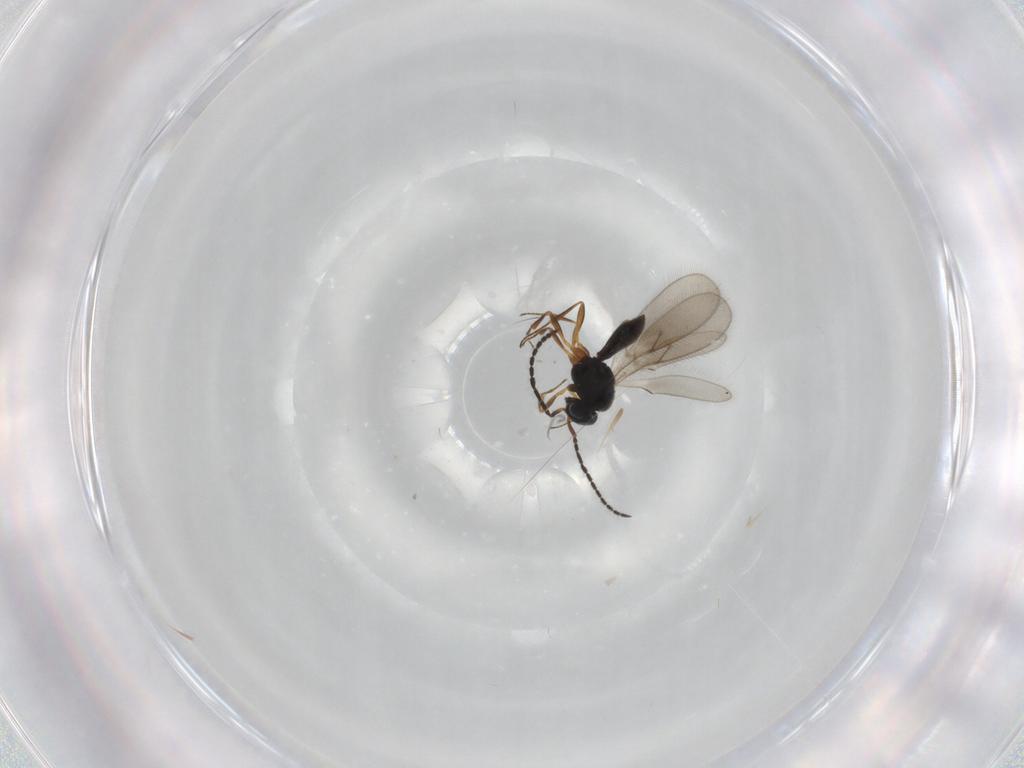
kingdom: Animalia
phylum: Arthropoda
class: Insecta
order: Hymenoptera
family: Scelionidae
